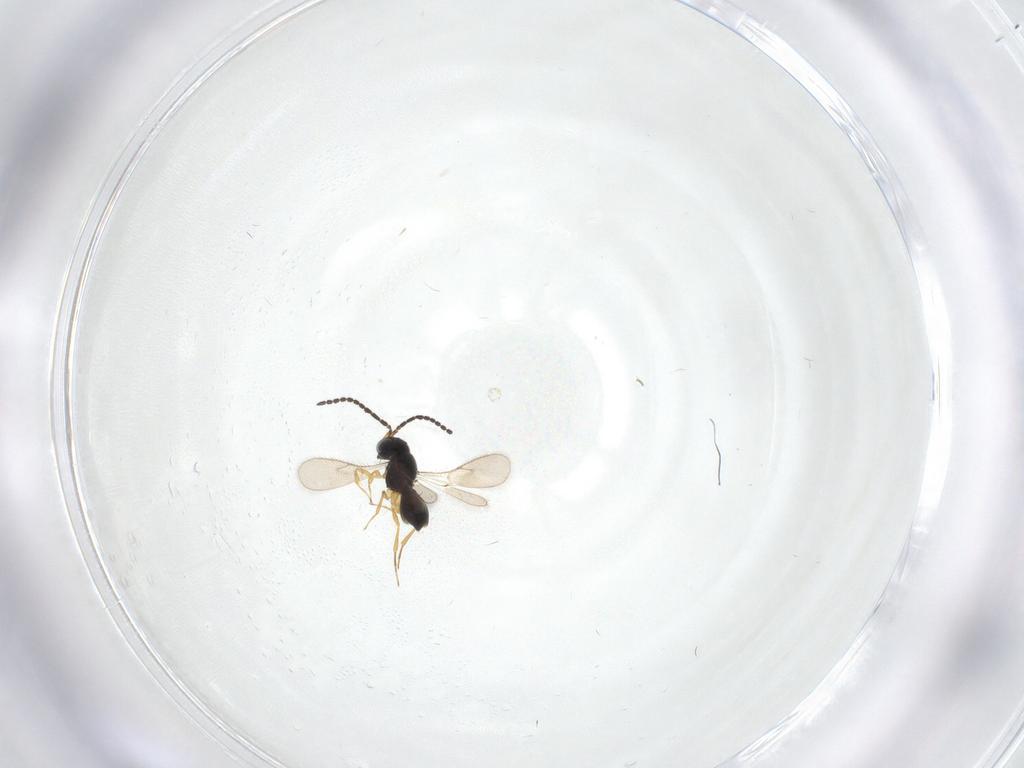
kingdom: Animalia
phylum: Arthropoda
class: Insecta
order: Hymenoptera
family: Scelionidae
